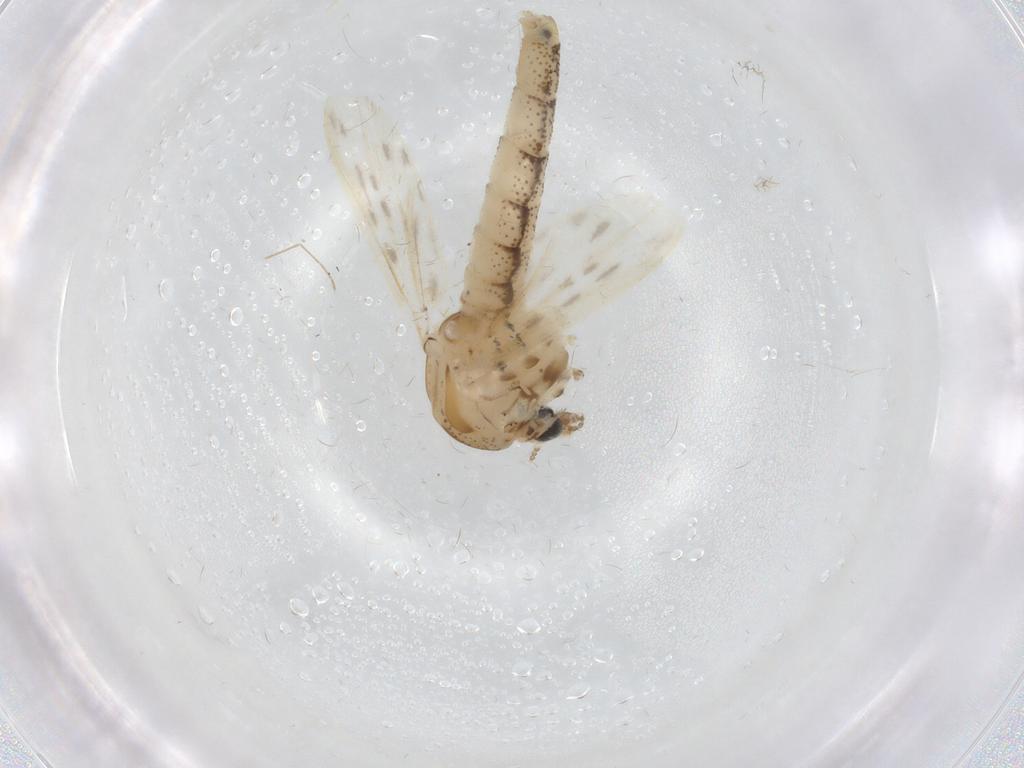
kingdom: Animalia
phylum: Arthropoda
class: Insecta
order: Diptera
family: Chaoboridae
